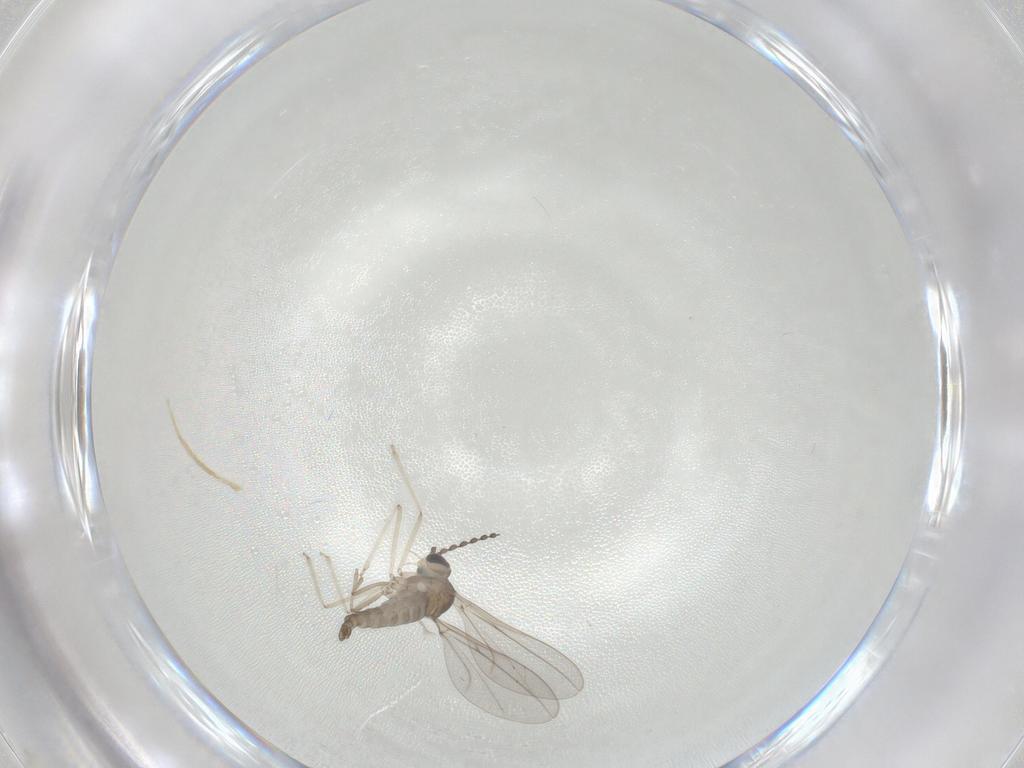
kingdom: Animalia
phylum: Arthropoda
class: Insecta
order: Diptera
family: Cecidomyiidae
